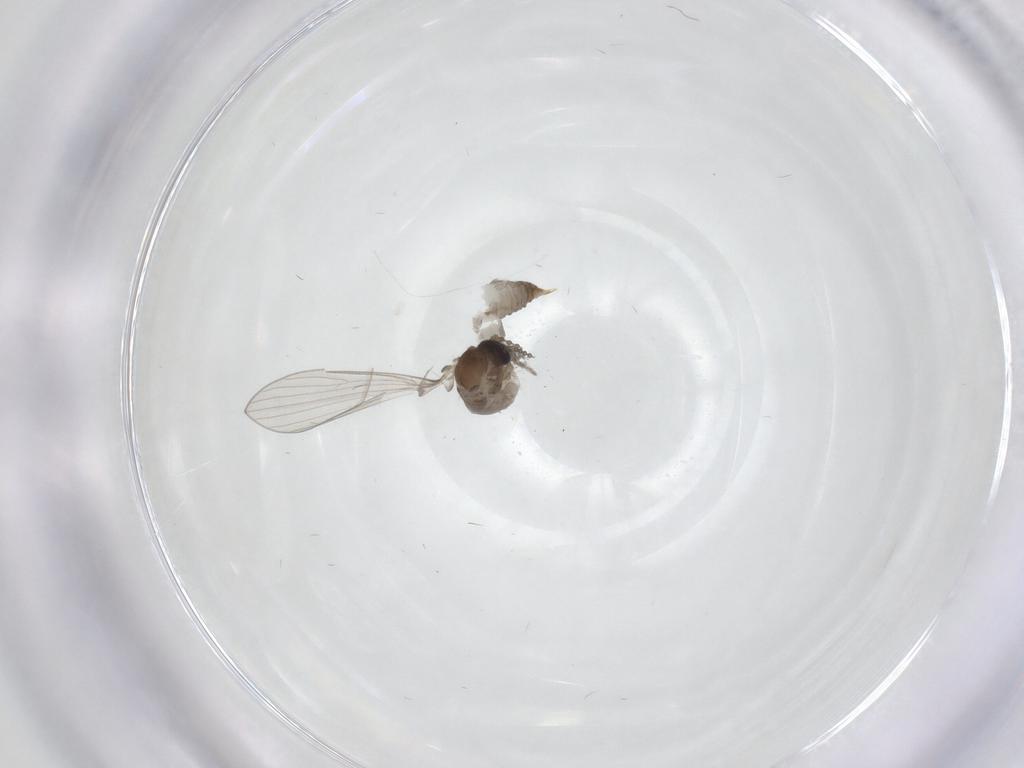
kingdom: Animalia
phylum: Arthropoda
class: Insecta
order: Diptera
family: Psychodidae
